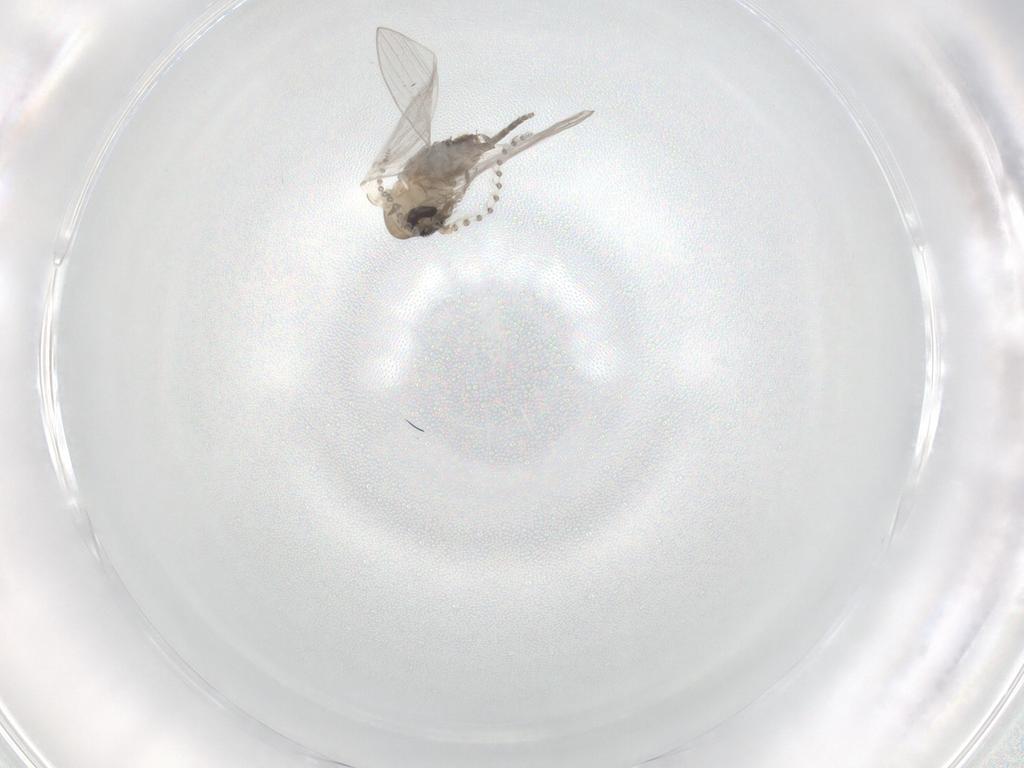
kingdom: Animalia
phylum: Arthropoda
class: Insecta
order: Diptera
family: Psychodidae
